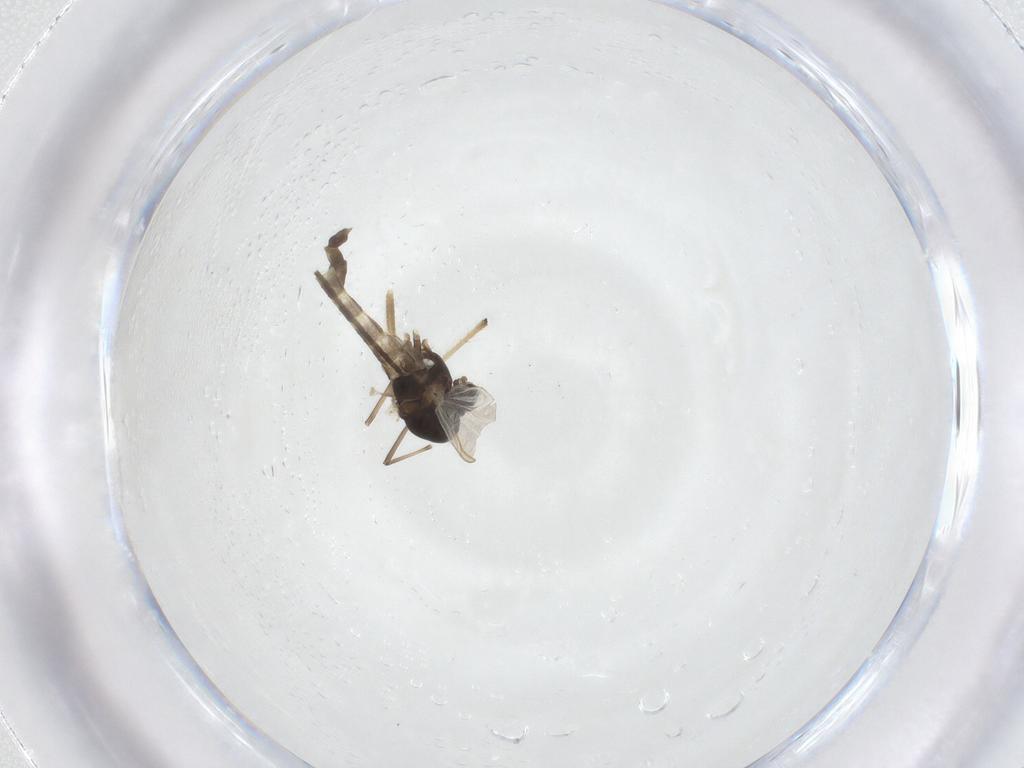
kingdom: Animalia
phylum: Arthropoda
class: Insecta
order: Diptera
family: Chironomidae
